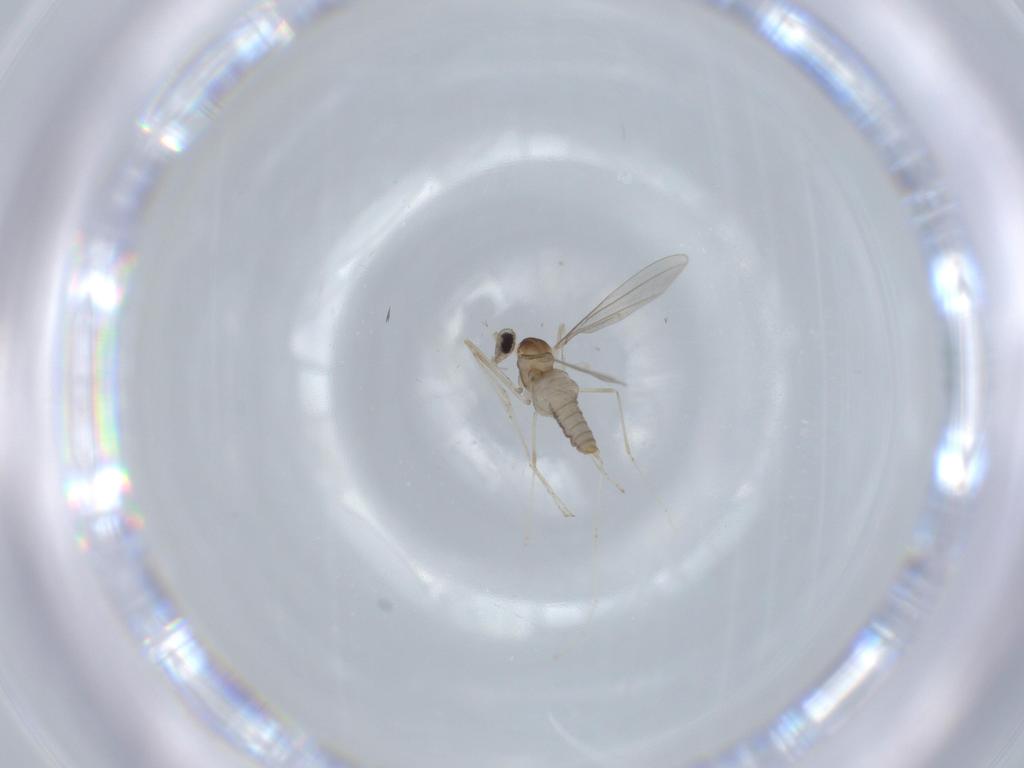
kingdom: Animalia
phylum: Arthropoda
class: Insecta
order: Diptera
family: Cecidomyiidae
